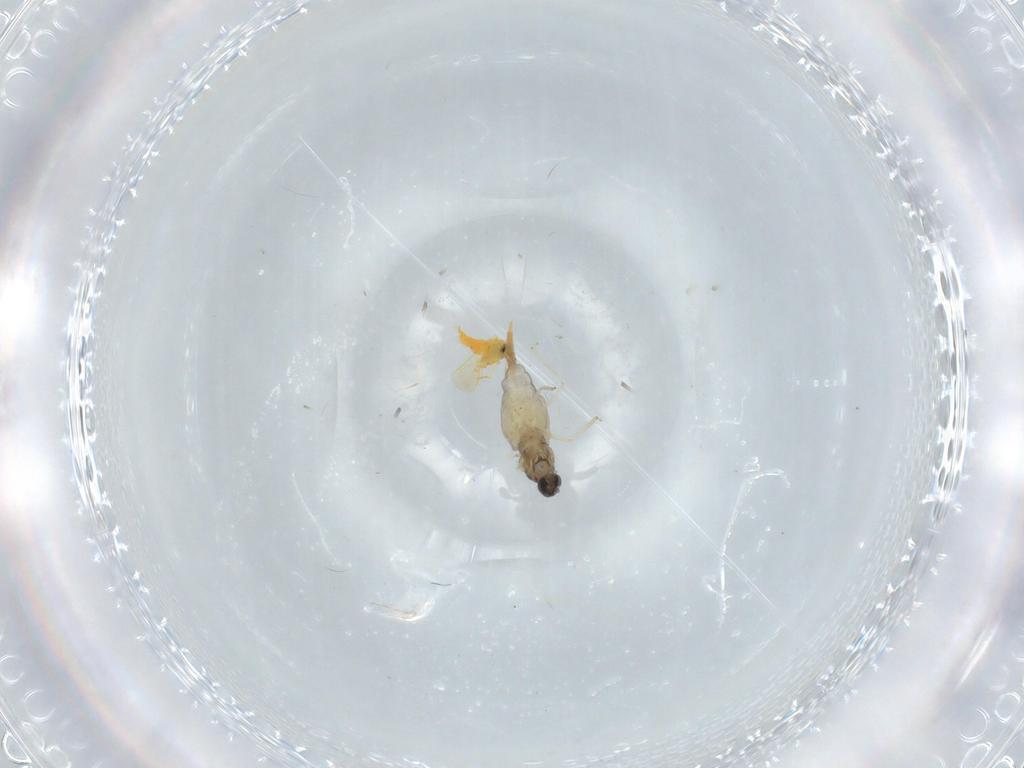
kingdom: Animalia
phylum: Arthropoda
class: Insecta
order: Diptera
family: Cecidomyiidae
